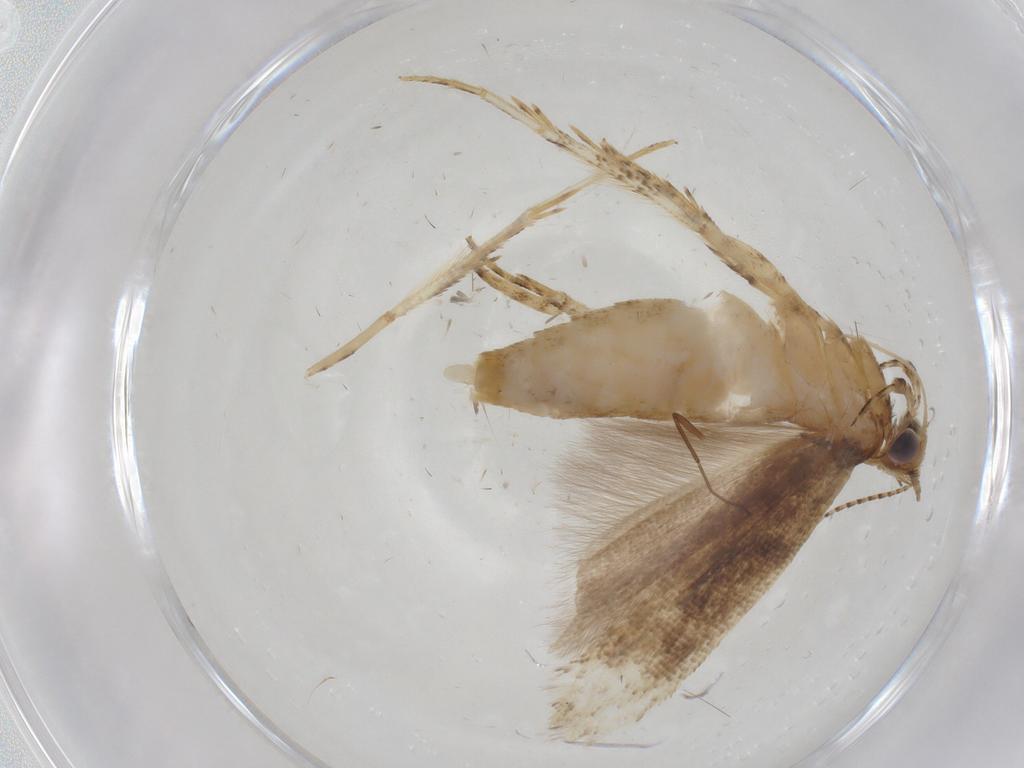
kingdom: Animalia
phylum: Arthropoda
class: Insecta
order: Lepidoptera
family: Gelechiidae
